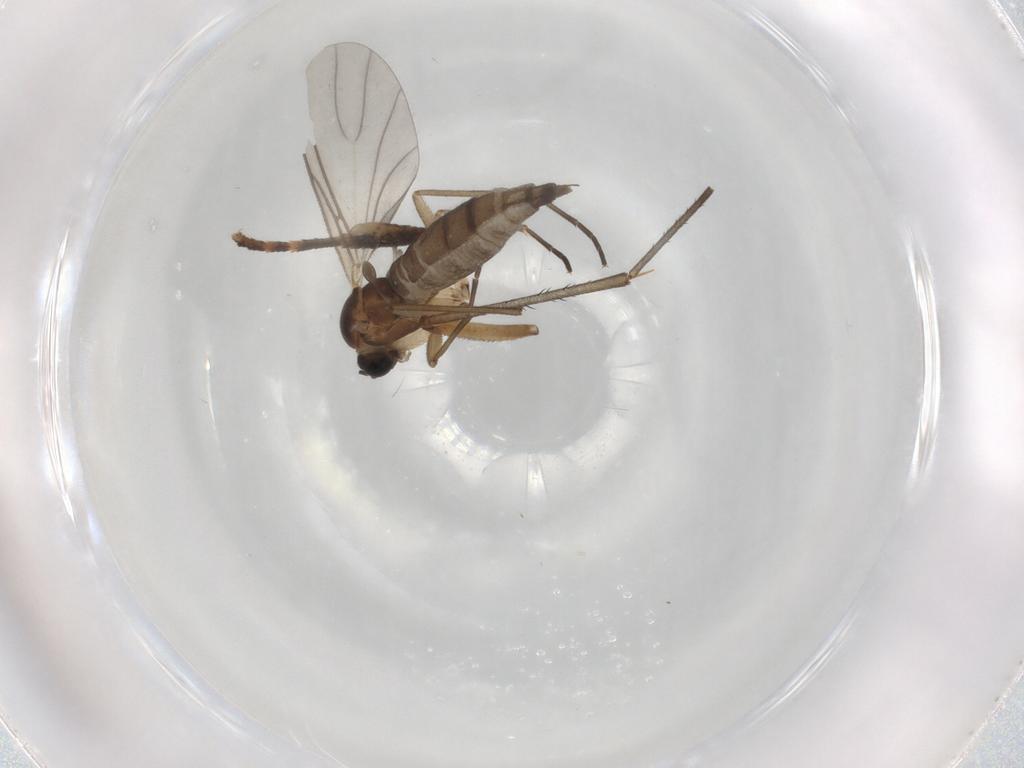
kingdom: Animalia
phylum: Arthropoda
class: Insecta
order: Diptera
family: Sciaridae
